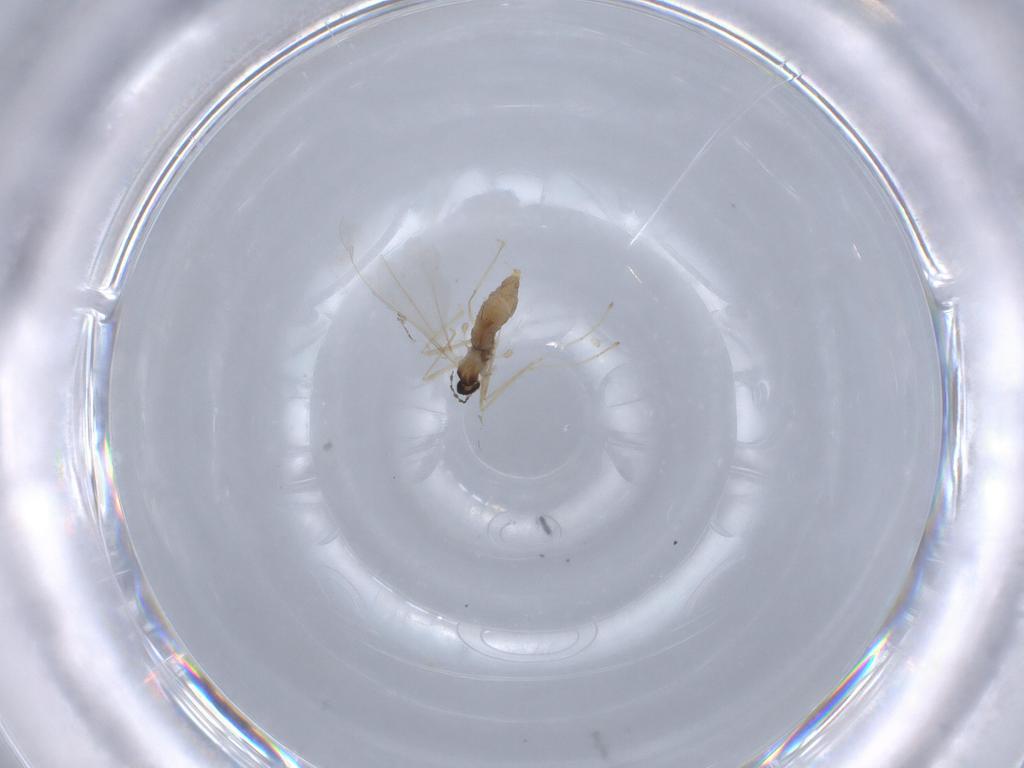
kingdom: Animalia
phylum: Arthropoda
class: Insecta
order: Diptera
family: Cecidomyiidae
